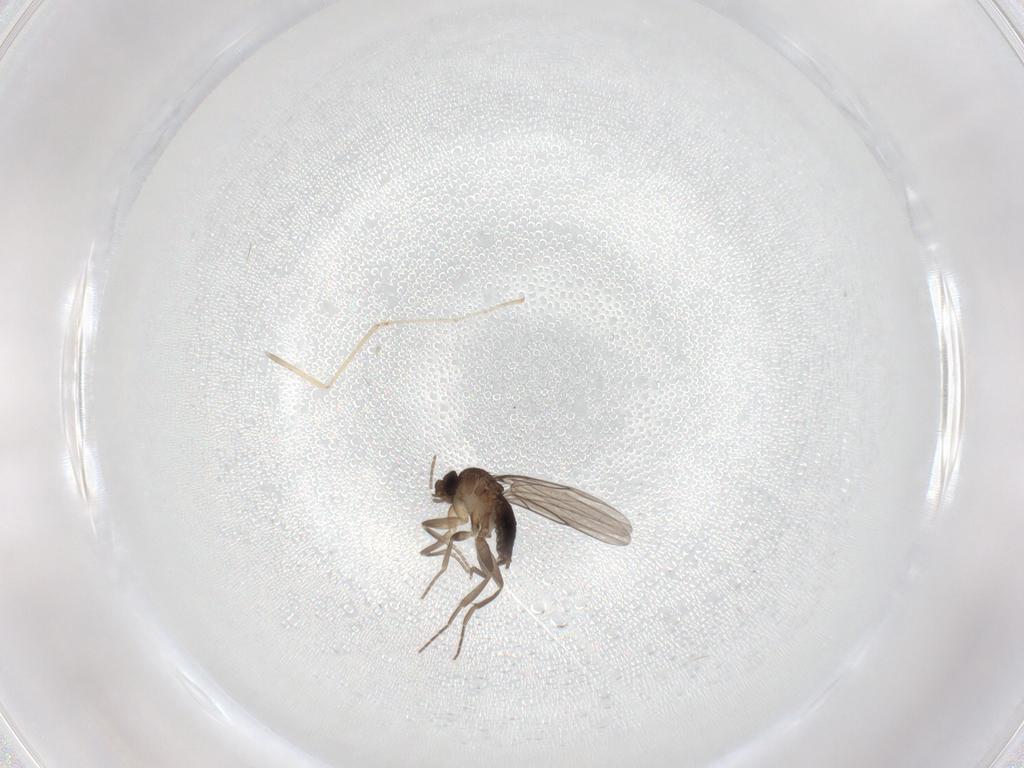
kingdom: Animalia
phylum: Arthropoda
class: Insecta
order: Diptera
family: Cecidomyiidae
